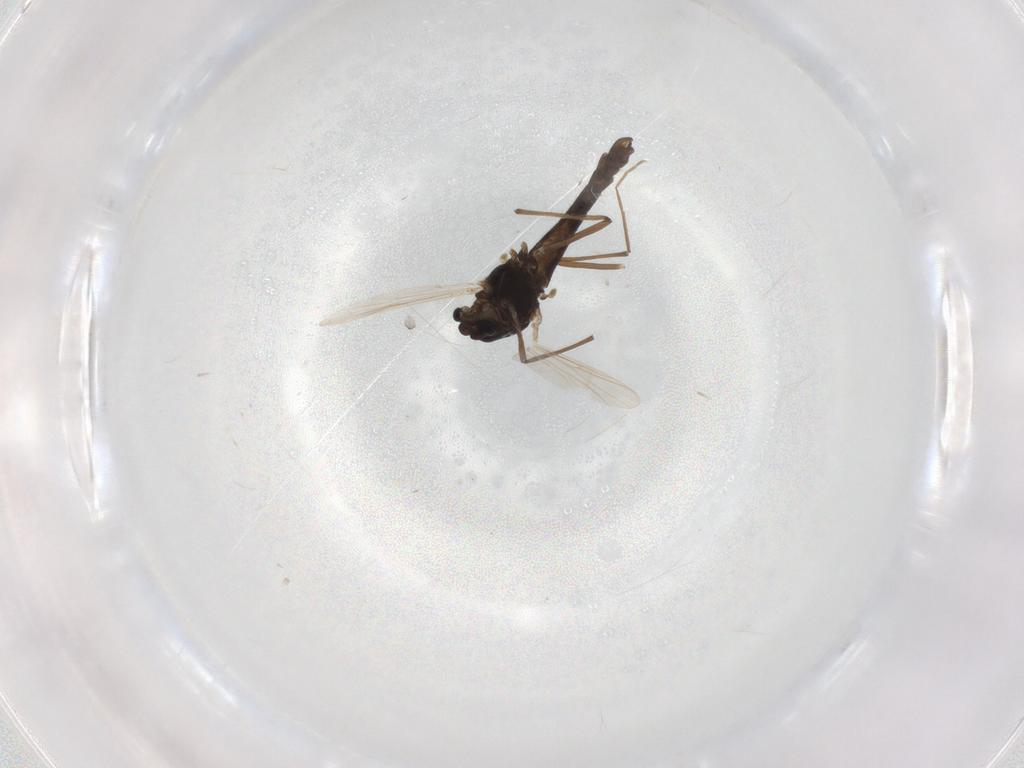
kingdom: Animalia
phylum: Arthropoda
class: Insecta
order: Diptera
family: Chironomidae
